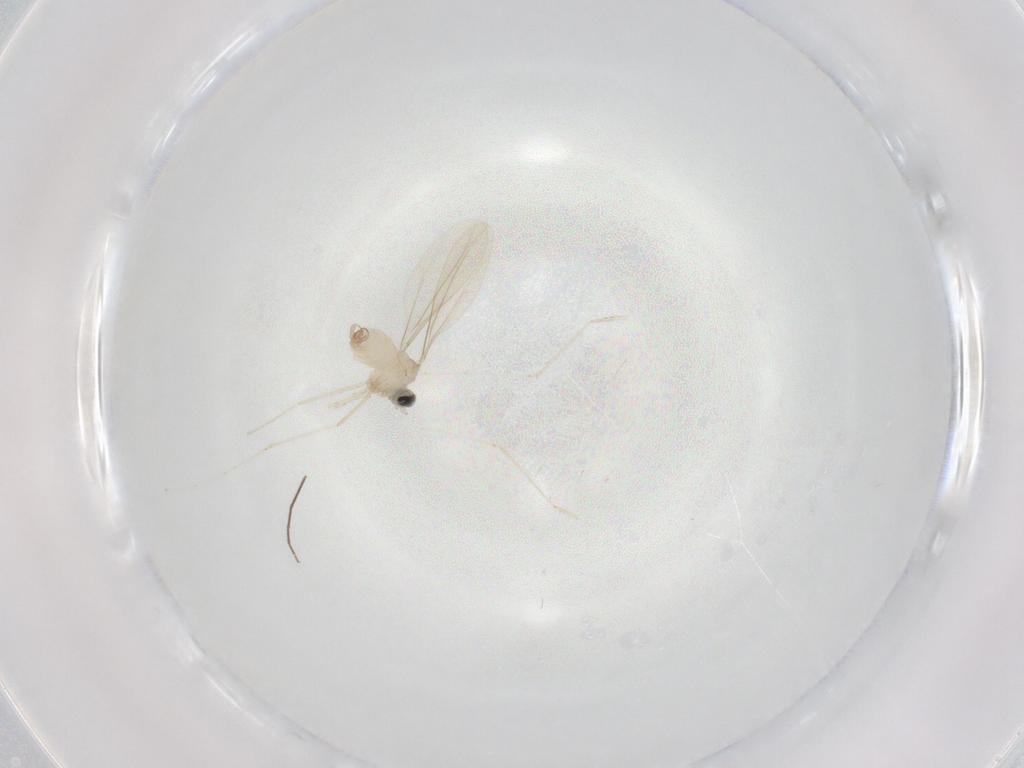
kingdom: Animalia
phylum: Arthropoda
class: Insecta
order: Diptera
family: Chironomidae
